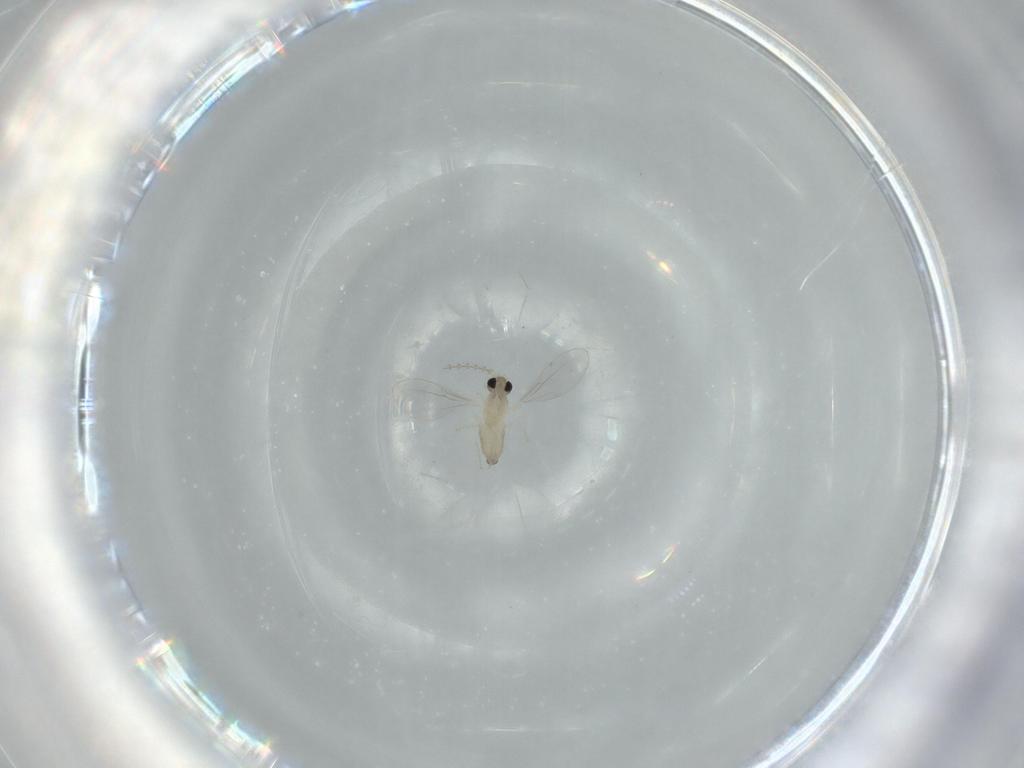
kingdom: Animalia
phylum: Arthropoda
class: Insecta
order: Diptera
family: Cecidomyiidae
